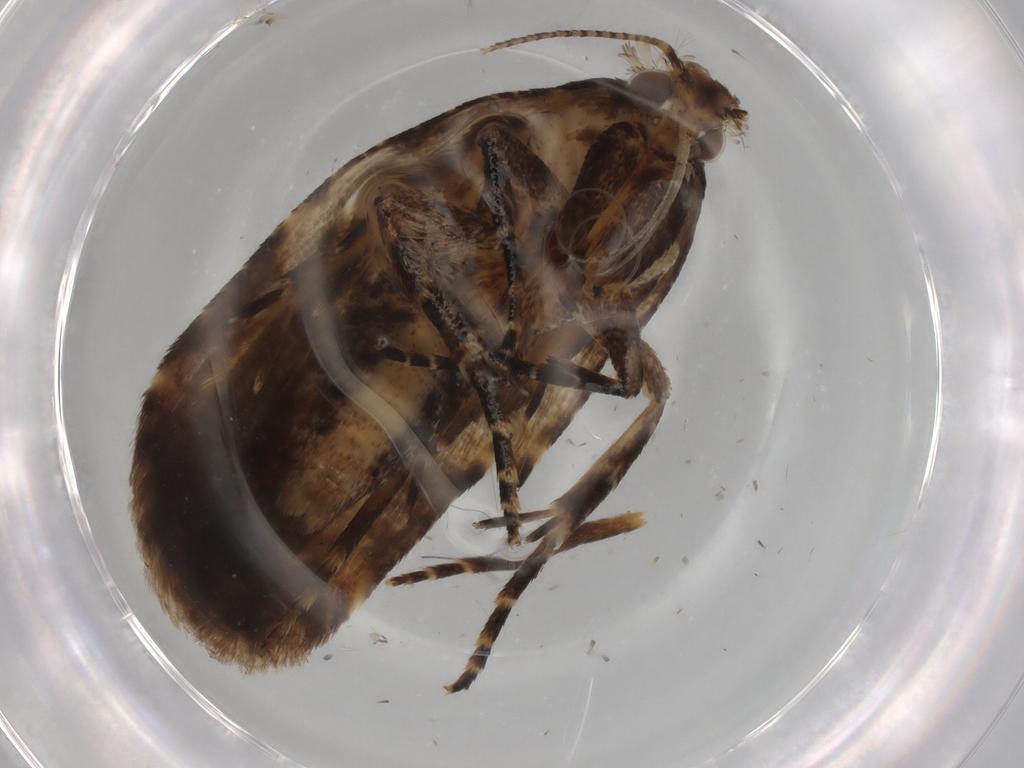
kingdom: Animalia
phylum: Arthropoda
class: Insecta
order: Lepidoptera
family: Gelechiidae
